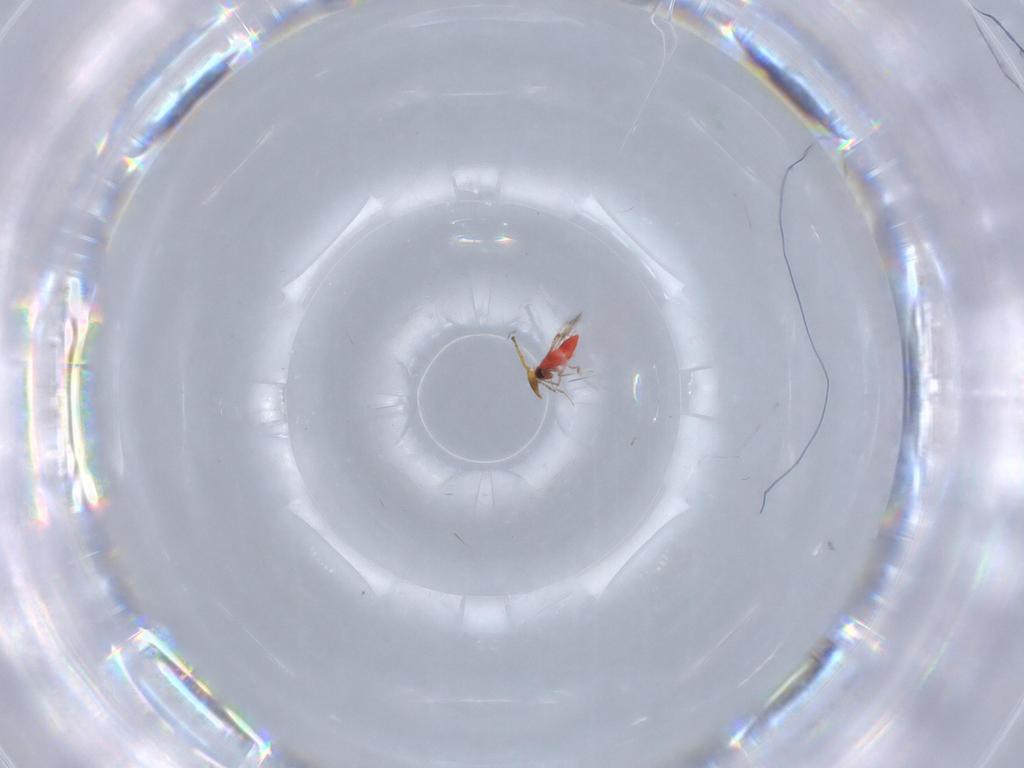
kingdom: Animalia
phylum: Arthropoda
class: Insecta
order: Hymenoptera
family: Bethylidae
